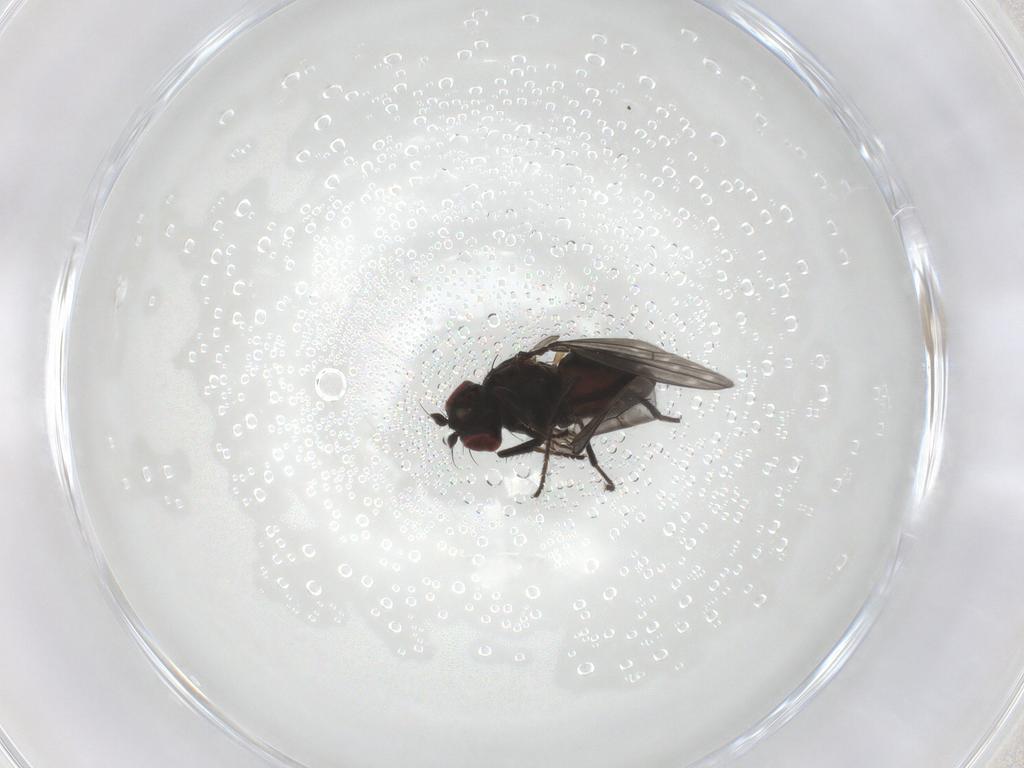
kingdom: Animalia
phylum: Arthropoda
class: Insecta
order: Diptera
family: Ephydridae
